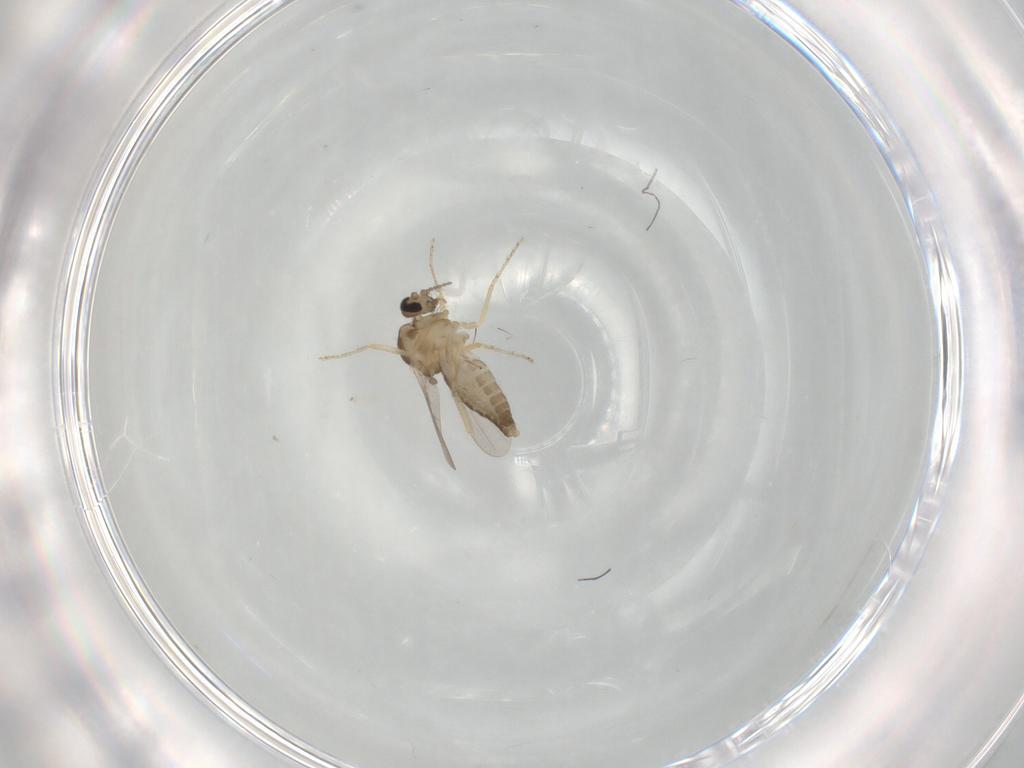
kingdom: Animalia
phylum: Arthropoda
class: Insecta
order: Diptera
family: Ceratopogonidae
